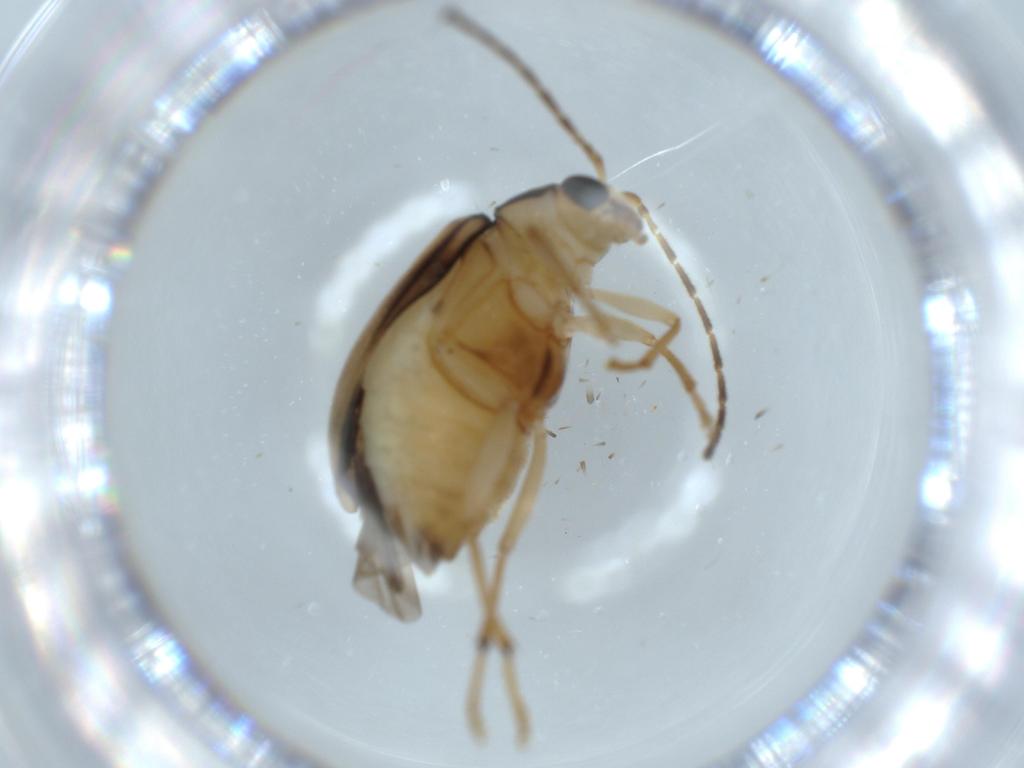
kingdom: Animalia
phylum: Arthropoda
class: Insecta
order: Coleoptera
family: Chrysomelidae
